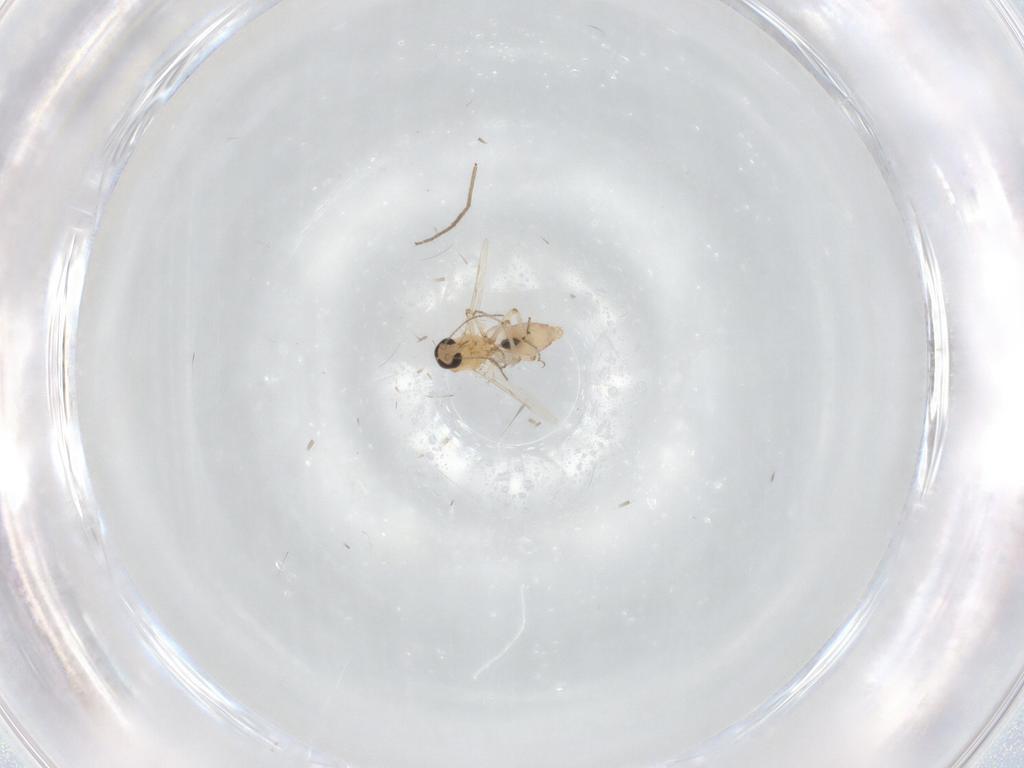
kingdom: Animalia
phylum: Arthropoda
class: Insecta
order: Diptera
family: Ceratopogonidae
